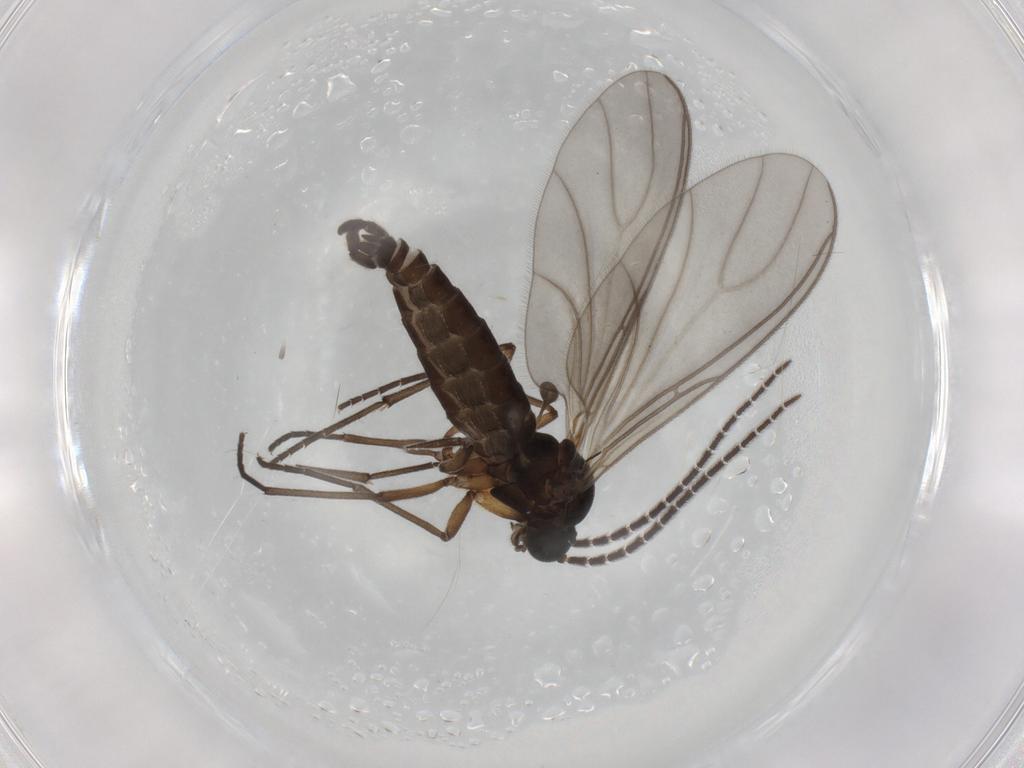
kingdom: Animalia
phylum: Arthropoda
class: Insecta
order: Diptera
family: Sciaridae
